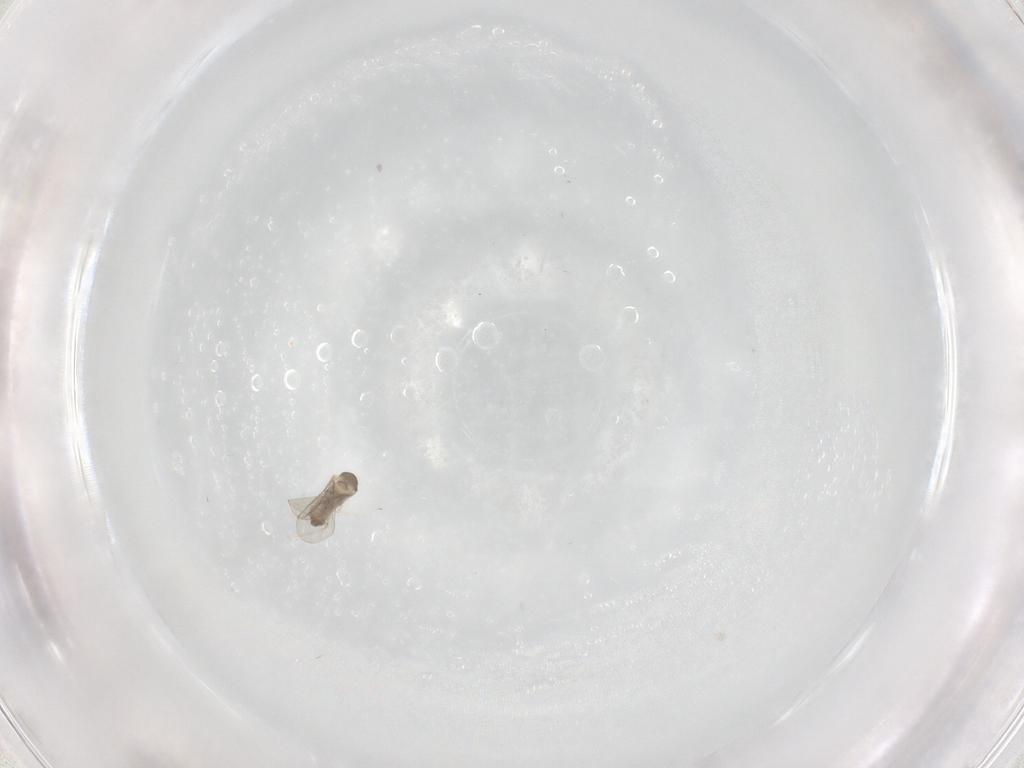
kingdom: Animalia
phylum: Arthropoda
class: Insecta
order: Diptera
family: Cecidomyiidae
